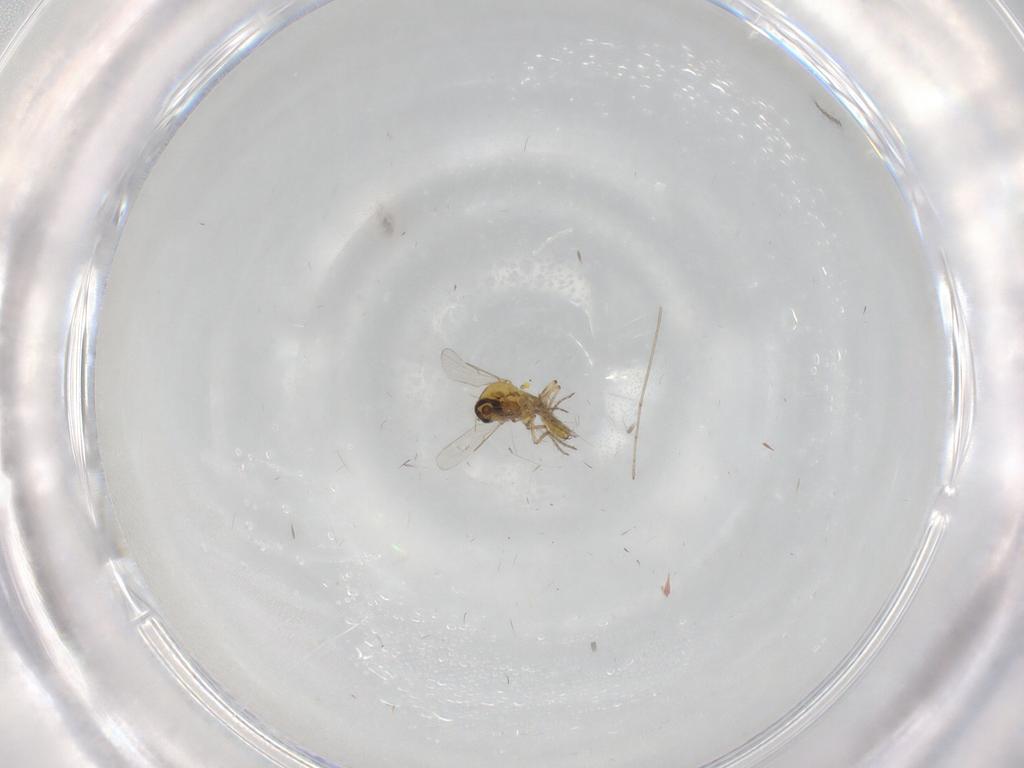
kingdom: Animalia
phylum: Arthropoda
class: Insecta
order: Diptera
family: Ceratopogonidae
